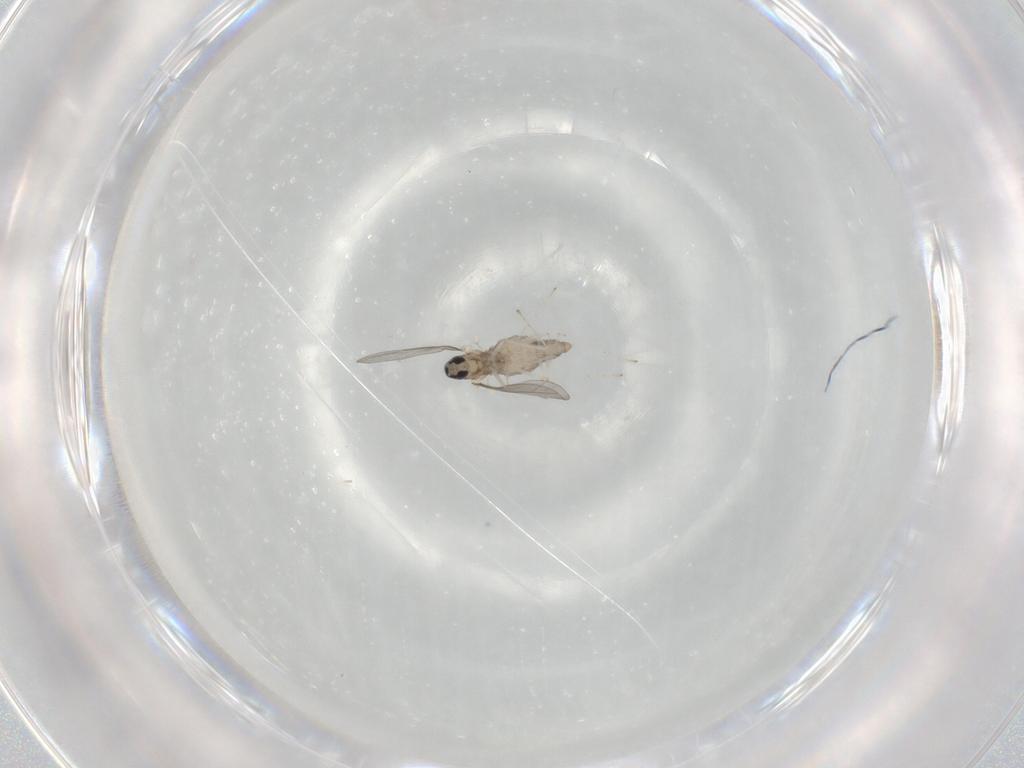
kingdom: Animalia
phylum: Arthropoda
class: Insecta
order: Diptera
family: Cecidomyiidae
